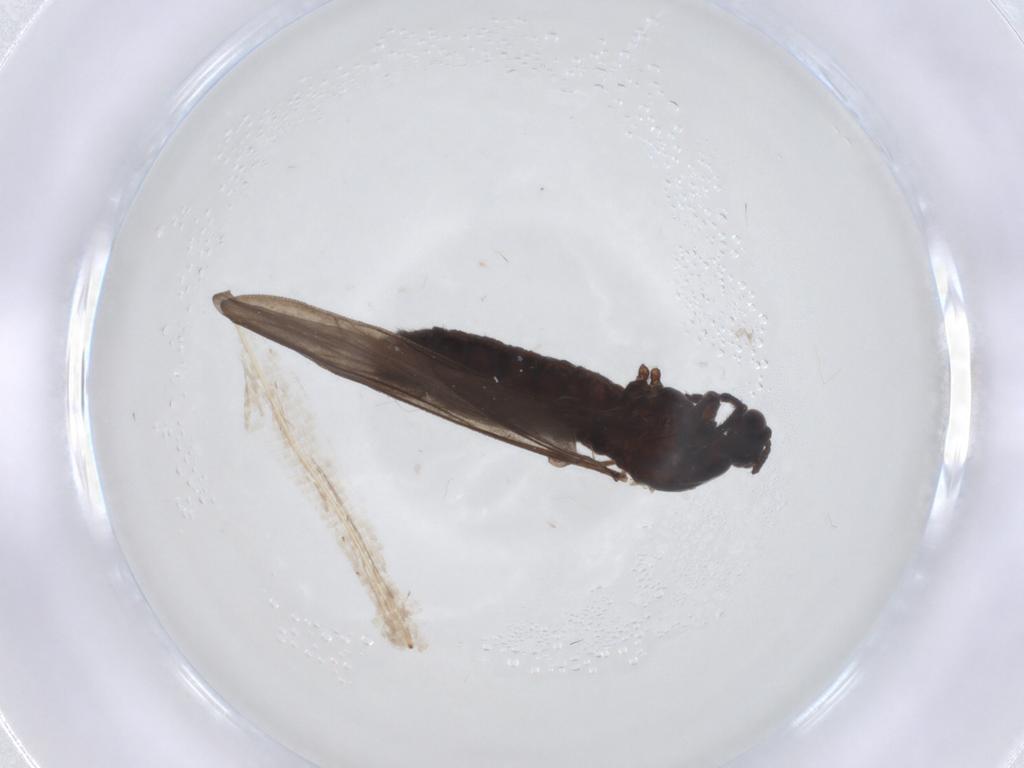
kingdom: Animalia
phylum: Arthropoda
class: Insecta
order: Diptera
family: Bibionidae
